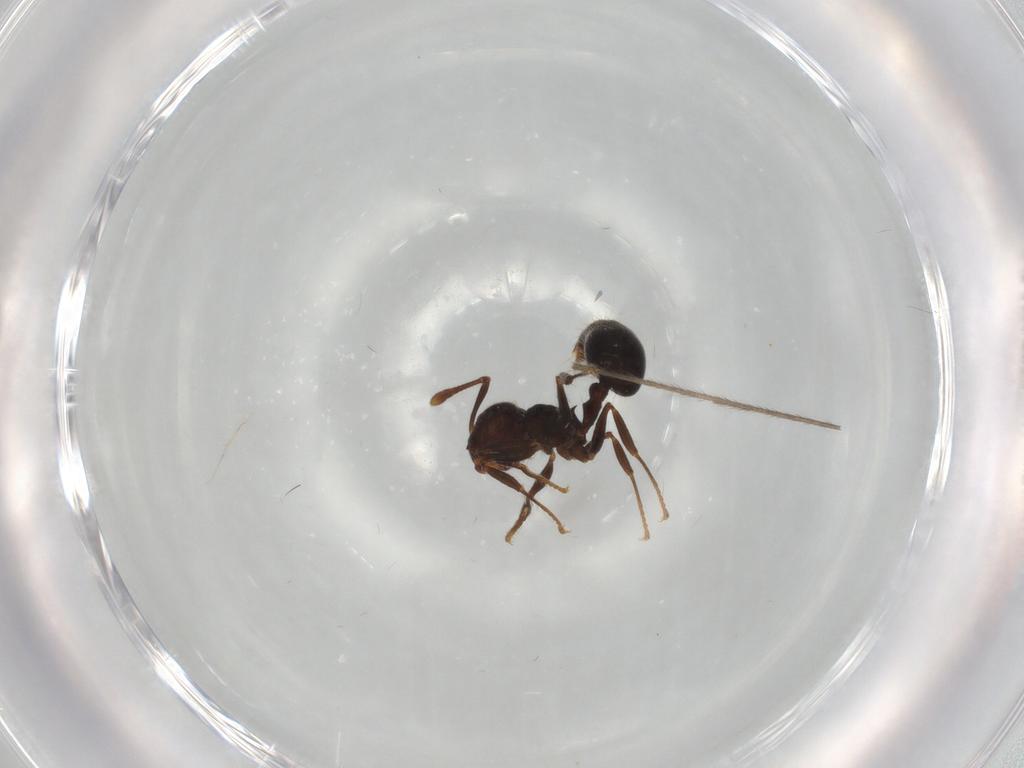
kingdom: Animalia
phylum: Arthropoda
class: Insecta
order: Hymenoptera
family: Formicidae
